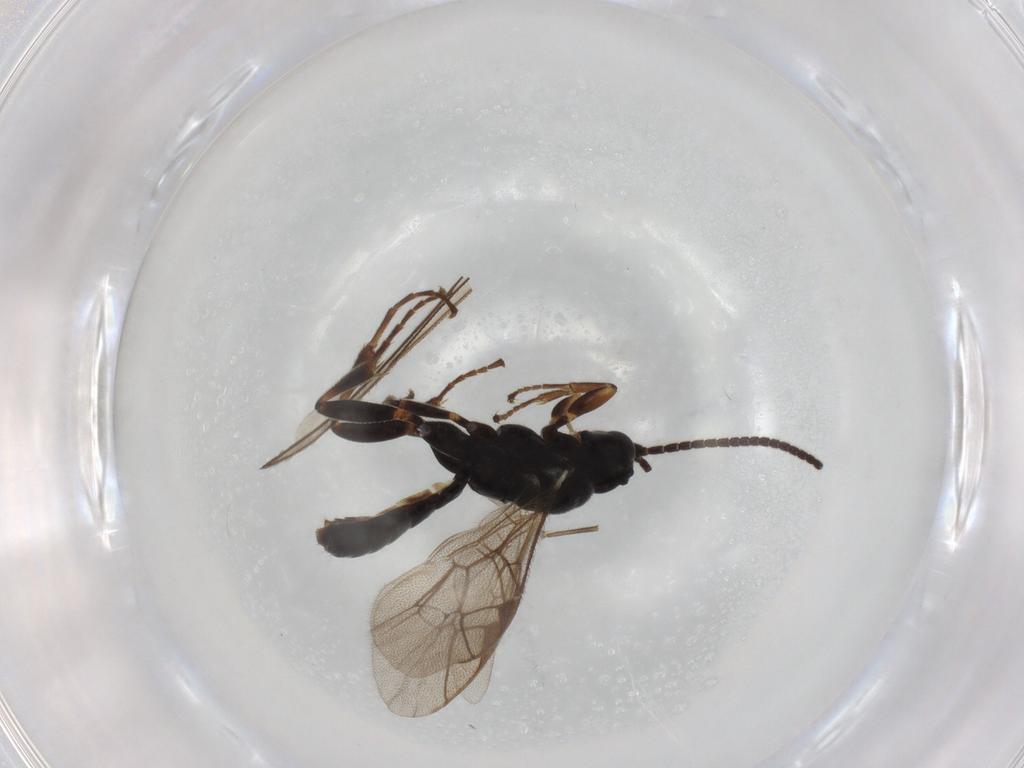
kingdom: Animalia
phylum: Arthropoda
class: Insecta
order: Hymenoptera
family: Ichneumonidae
